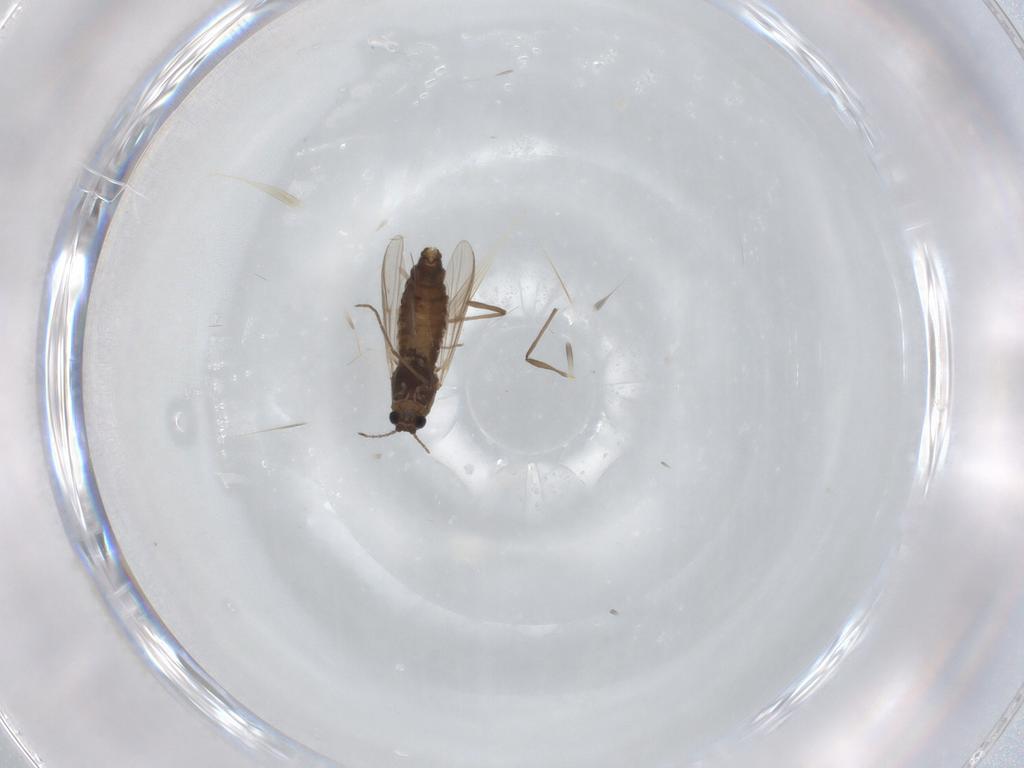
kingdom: Animalia
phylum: Arthropoda
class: Insecta
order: Diptera
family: Chironomidae
